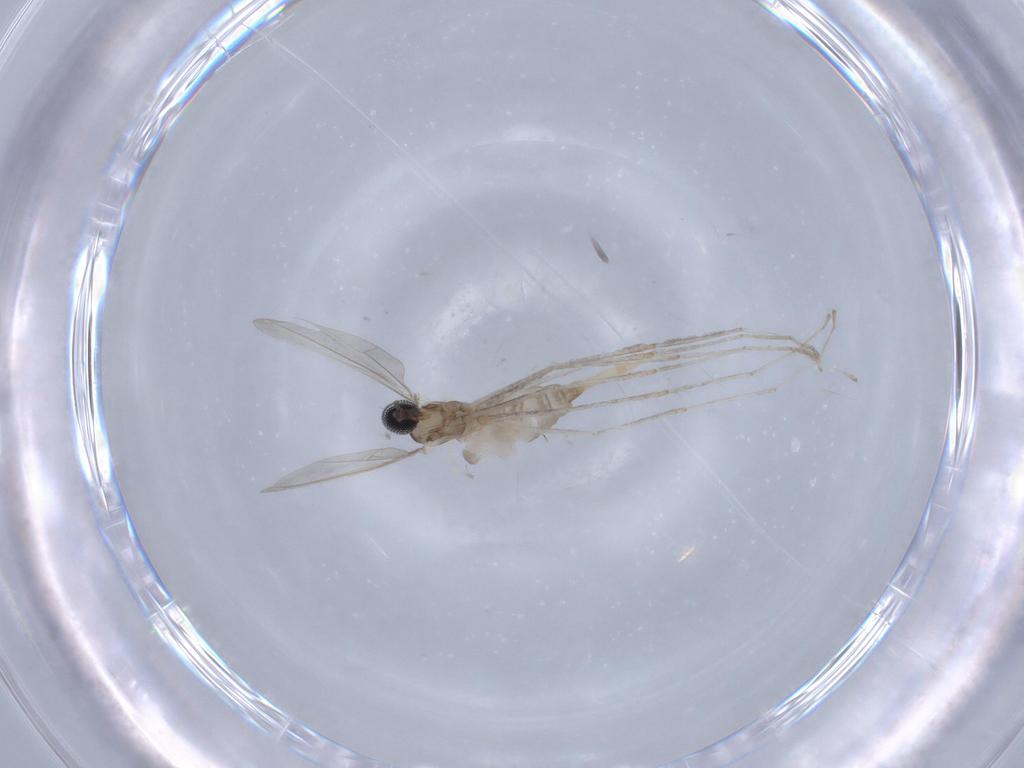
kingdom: Animalia
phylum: Arthropoda
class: Insecta
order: Diptera
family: Cecidomyiidae
